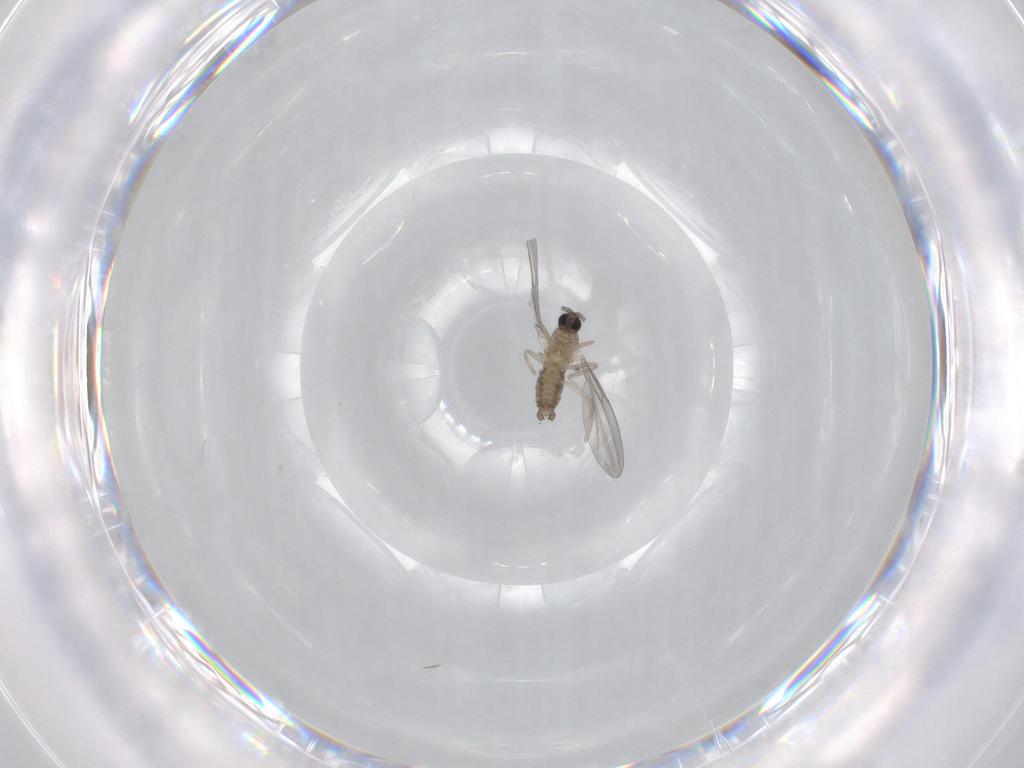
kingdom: Animalia
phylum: Arthropoda
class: Insecta
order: Diptera
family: Cecidomyiidae
